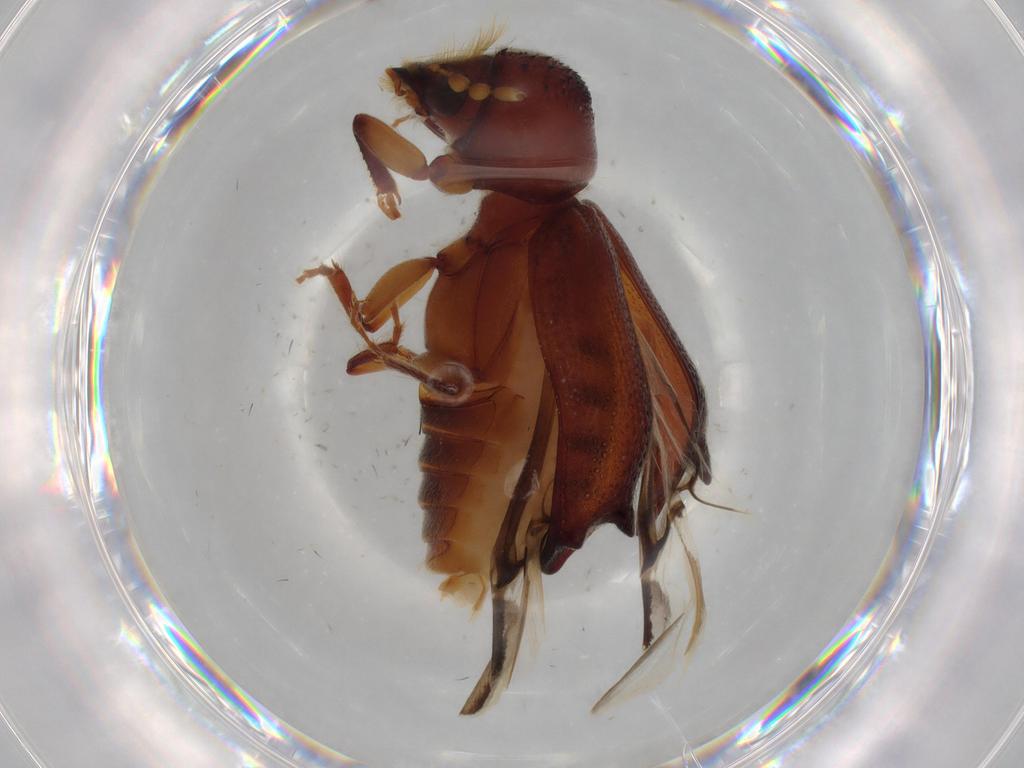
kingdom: Animalia
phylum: Arthropoda
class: Insecta
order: Coleoptera
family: Bostrichidae
